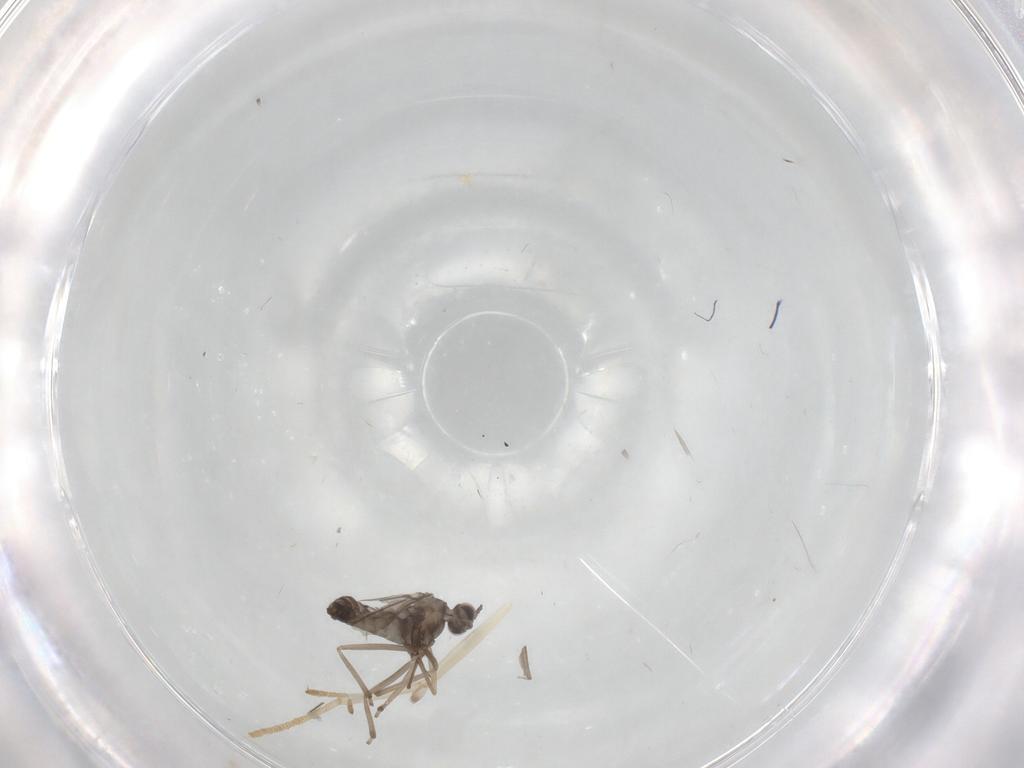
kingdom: Animalia
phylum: Arthropoda
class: Insecta
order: Diptera
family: Cecidomyiidae
